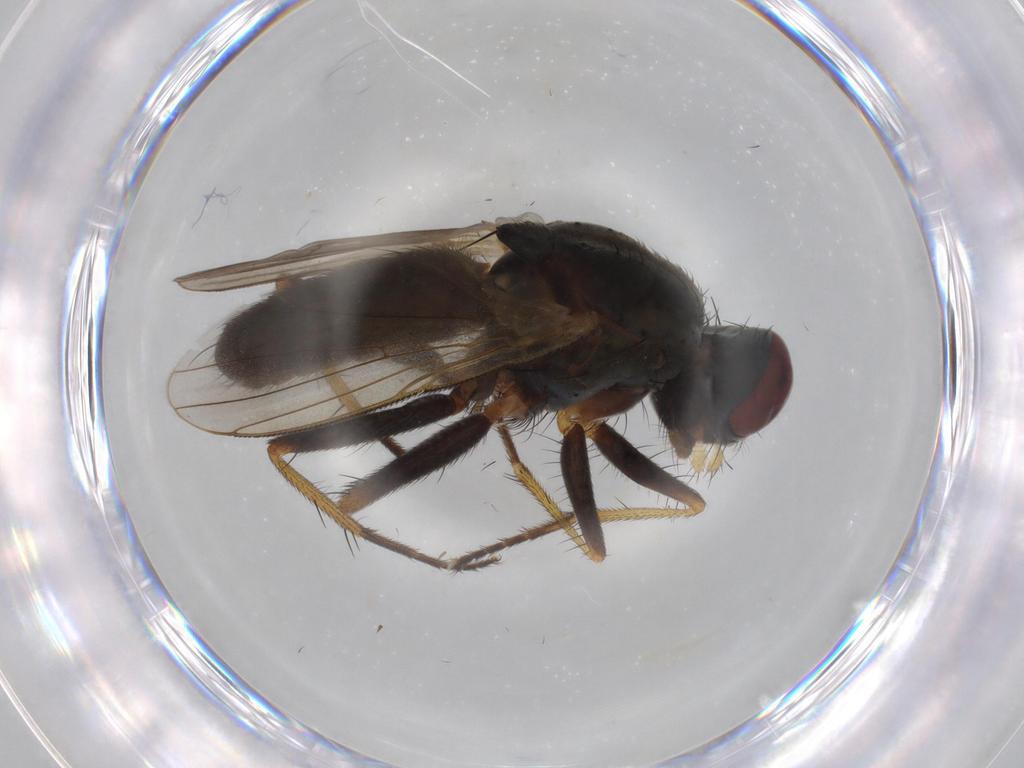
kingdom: Animalia
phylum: Arthropoda
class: Insecta
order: Diptera
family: Muscidae
